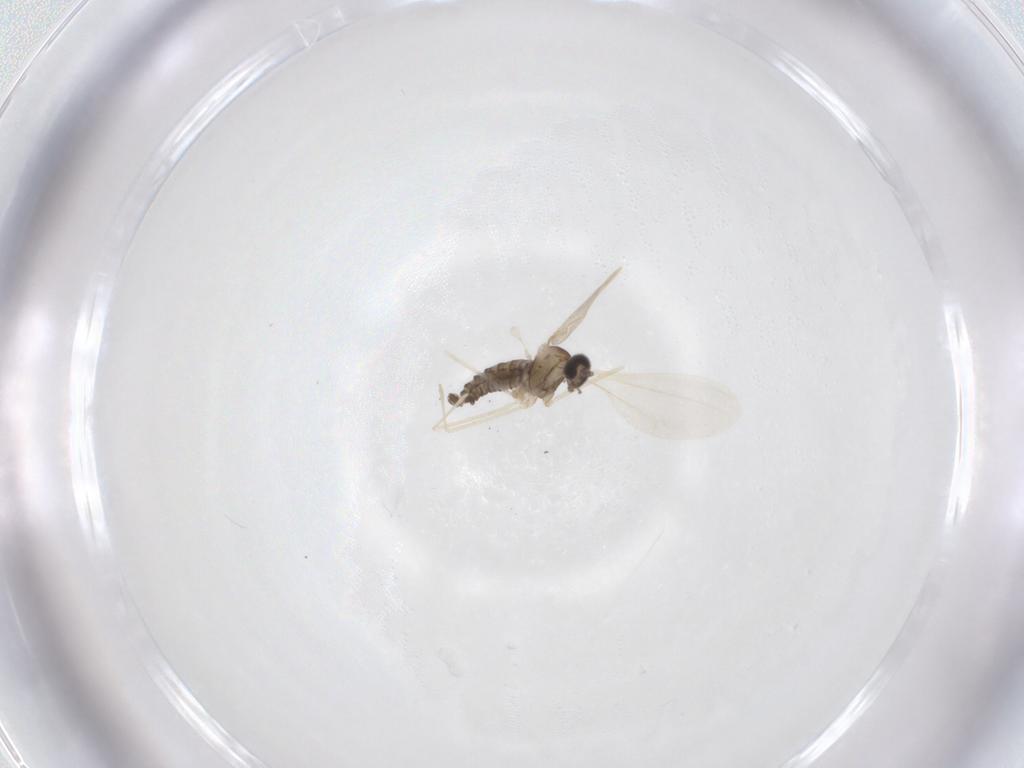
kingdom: Animalia
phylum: Arthropoda
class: Insecta
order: Diptera
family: Cecidomyiidae
